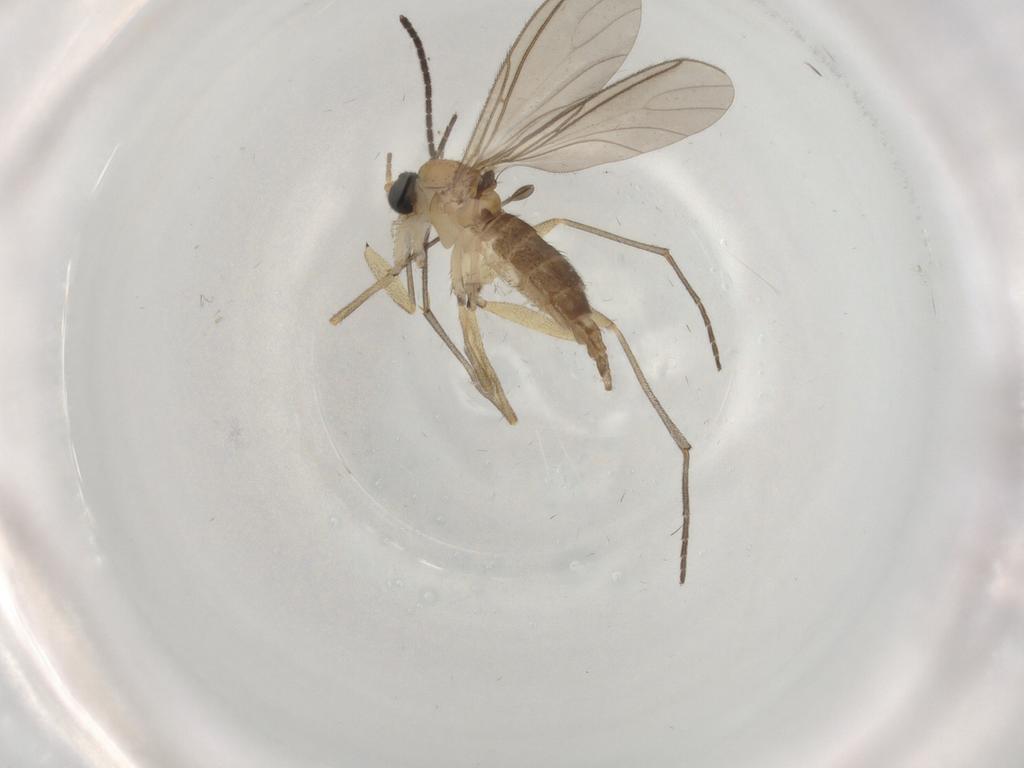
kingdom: Animalia
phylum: Arthropoda
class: Insecta
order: Diptera
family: Sciaridae
